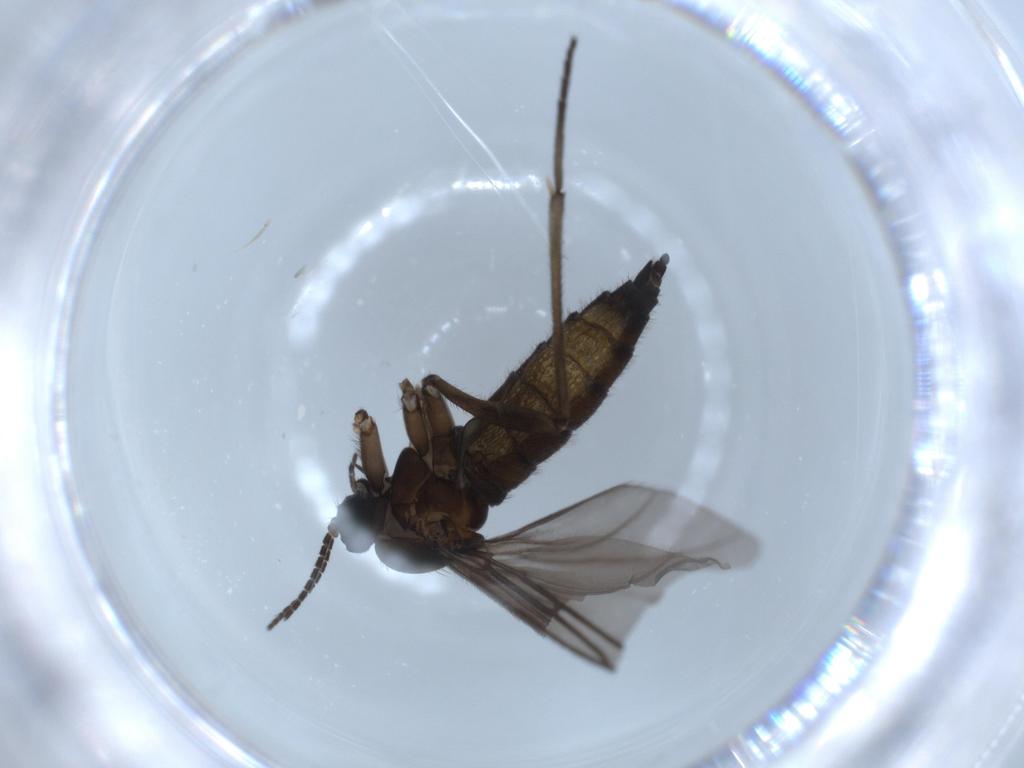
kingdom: Animalia
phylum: Arthropoda
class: Insecta
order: Diptera
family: Sciaridae
